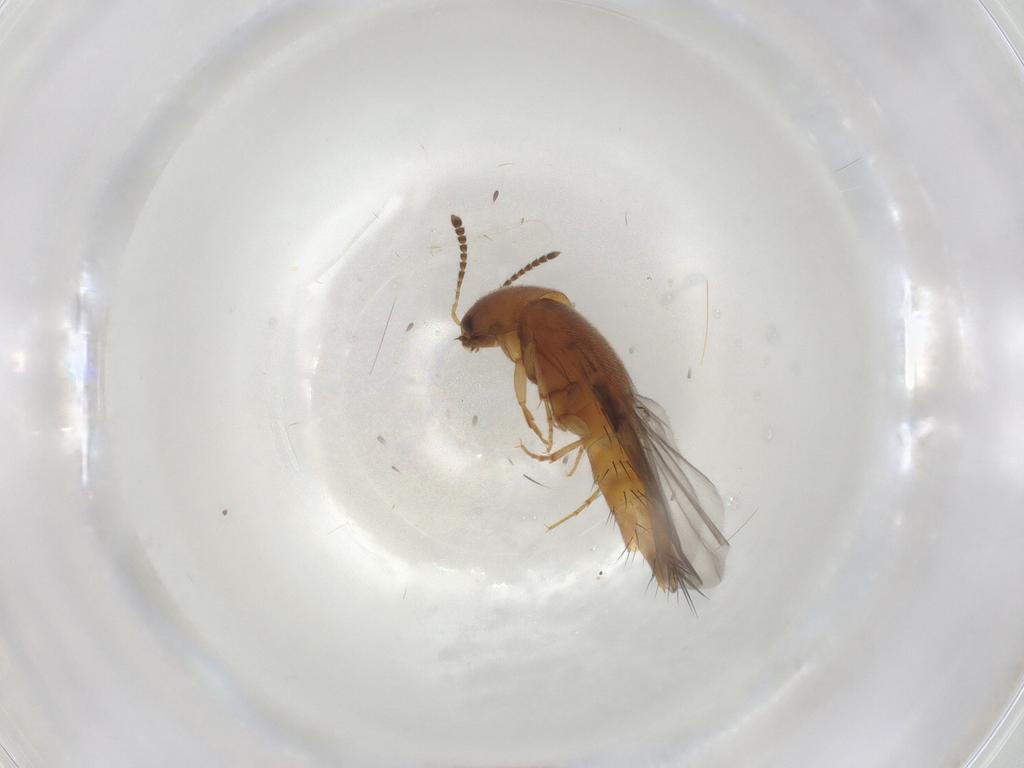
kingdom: Animalia
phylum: Arthropoda
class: Insecta
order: Coleoptera
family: Staphylinidae
